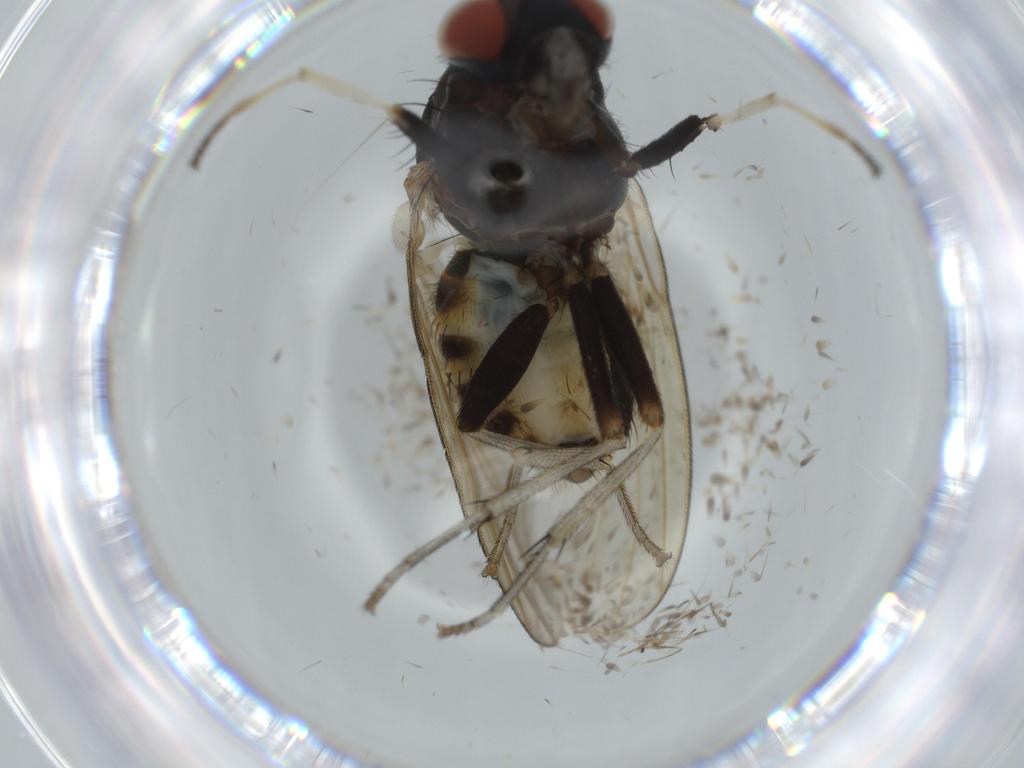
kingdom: Animalia
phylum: Arthropoda
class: Insecta
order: Diptera
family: Lauxaniidae
